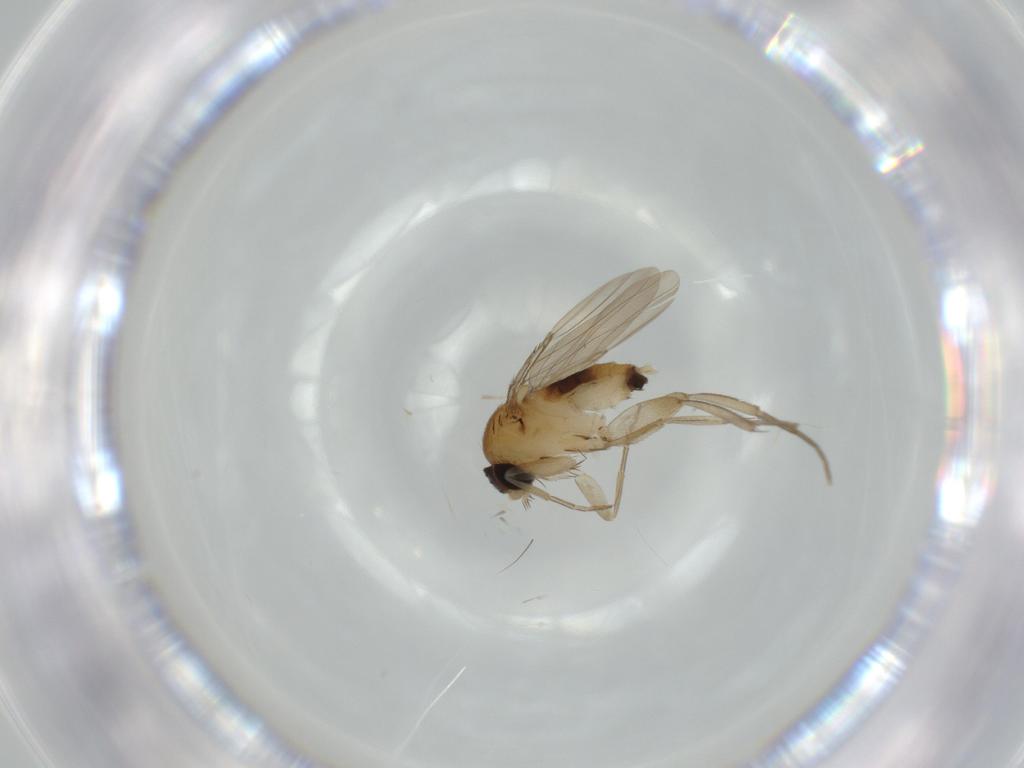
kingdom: Animalia
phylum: Arthropoda
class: Insecta
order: Diptera
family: Phoridae
